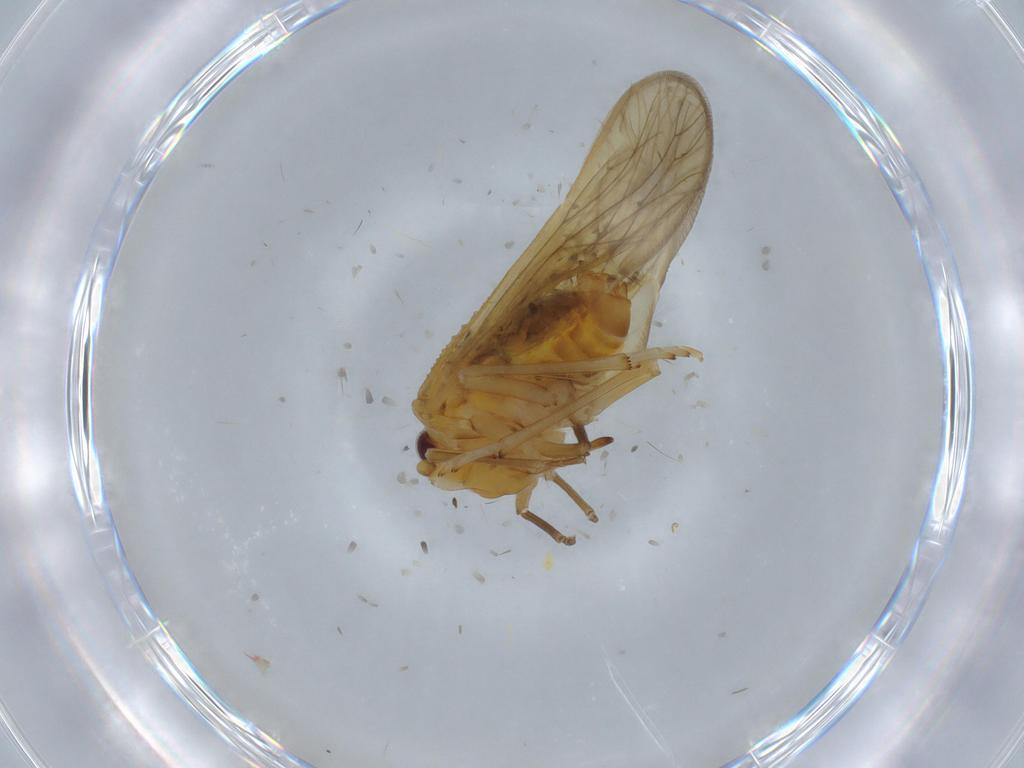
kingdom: Animalia
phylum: Arthropoda
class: Insecta
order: Hemiptera
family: Meenoplidae
